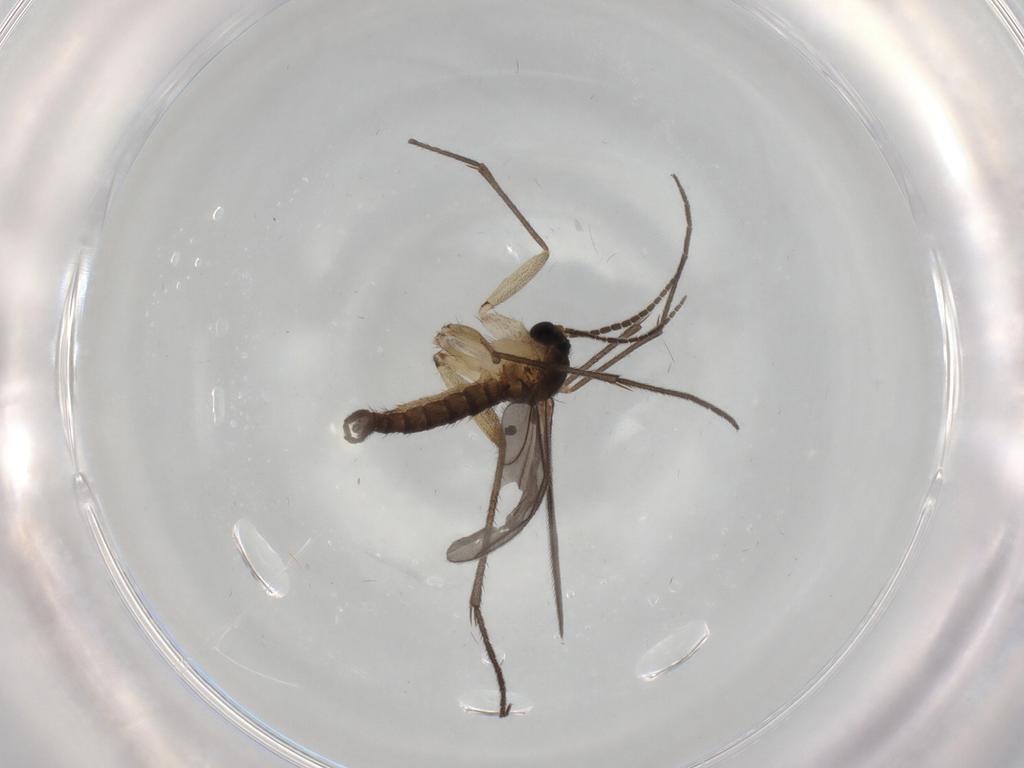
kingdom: Animalia
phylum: Arthropoda
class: Insecta
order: Diptera
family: Sciaridae
